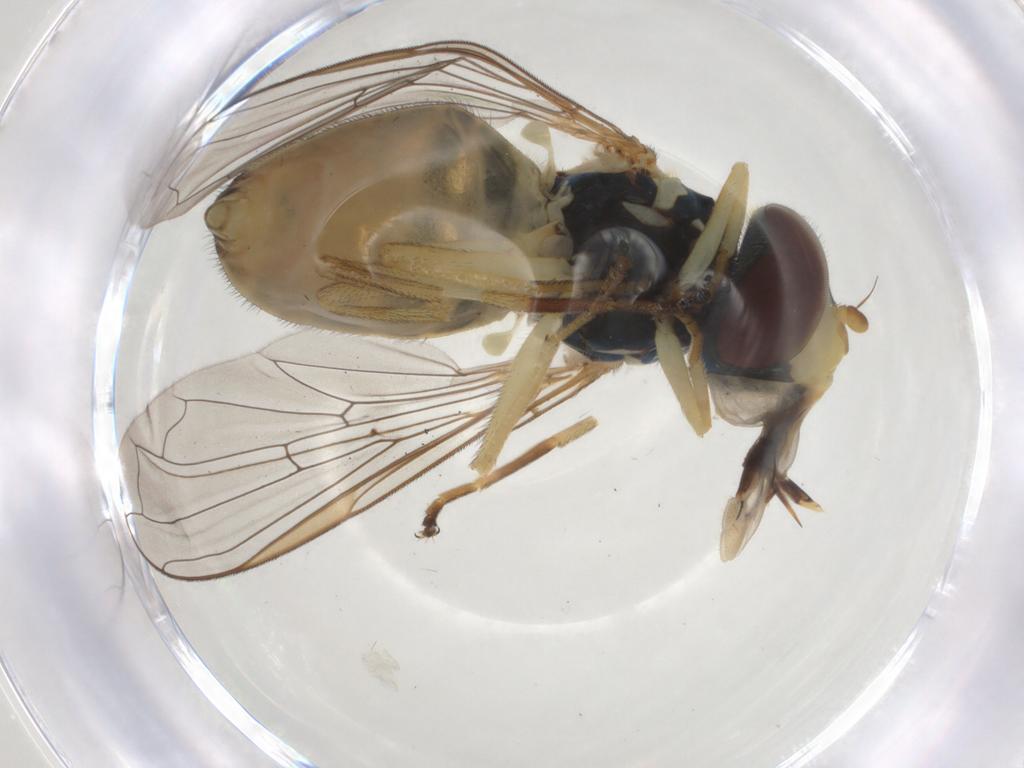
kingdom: Animalia
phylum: Arthropoda
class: Insecta
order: Diptera
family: Syrphidae
